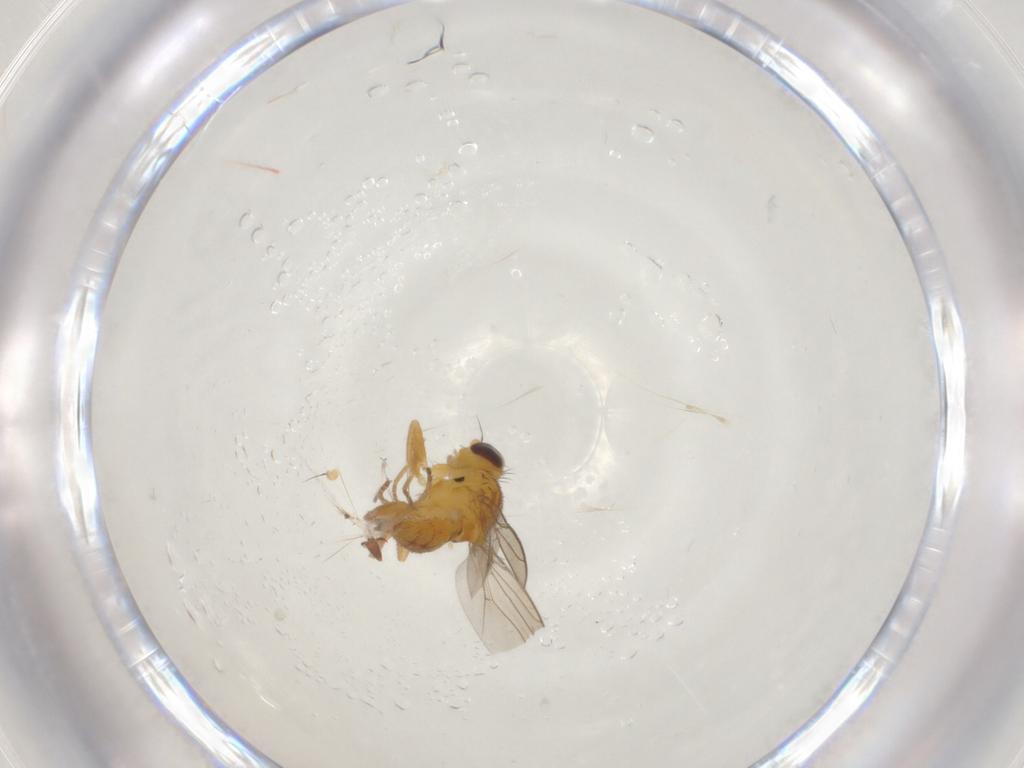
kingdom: Animalia
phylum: Arthropoda
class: Insecta
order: Diptera
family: Chloropidae
